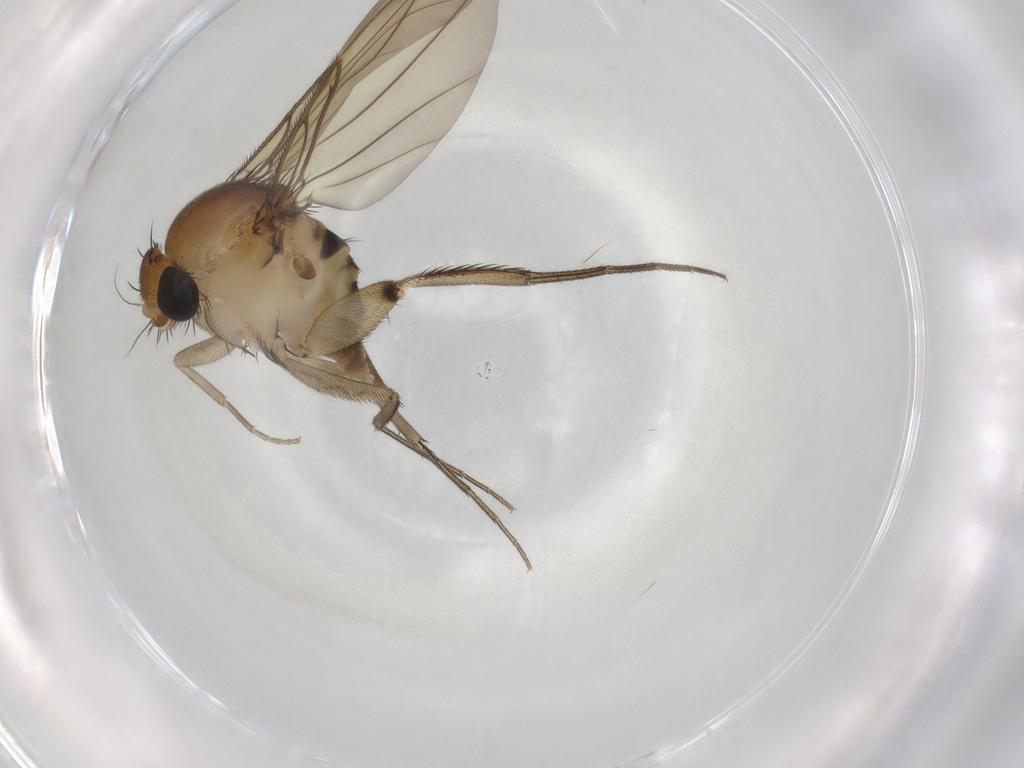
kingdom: Animalia
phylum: Arthropoda
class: Insecta
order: Diptera
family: Phoridae
